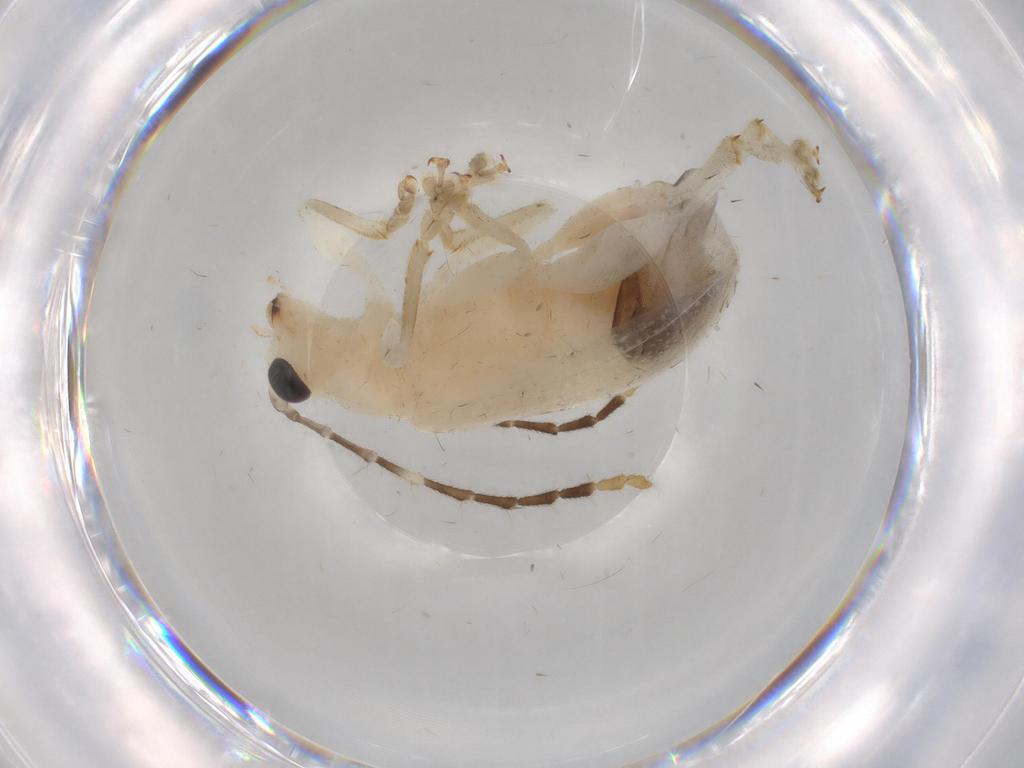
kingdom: Animalia
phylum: Arthropoda
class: Insecta
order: Coleoptera
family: Chrysomelidae
